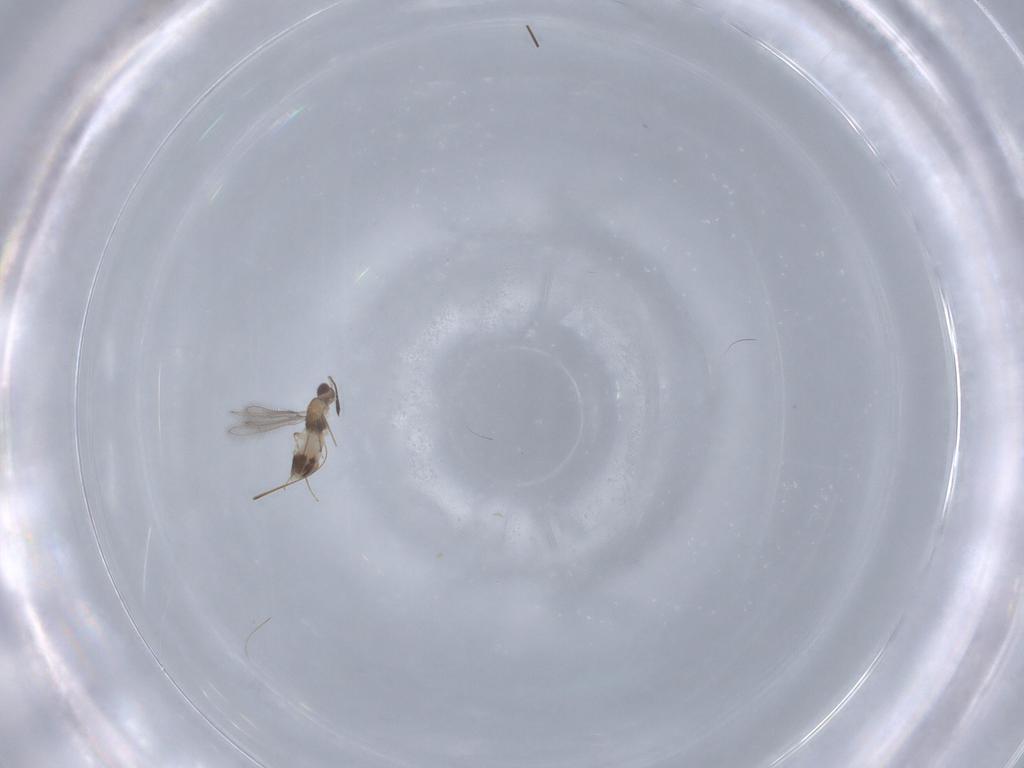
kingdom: Animalia
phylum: Arthropoda
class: Insecta
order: Hymenoptera
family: Mymaridae
